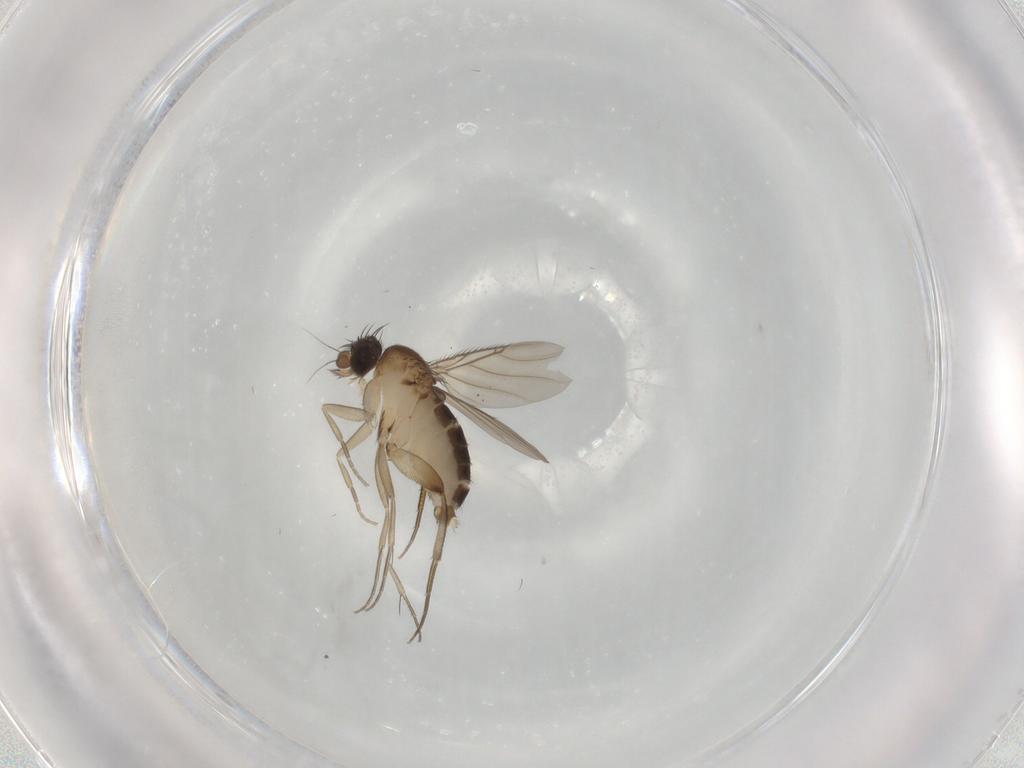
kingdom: Animalia
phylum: Arthropoda
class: Insecta
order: Diptera
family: Phoridae
